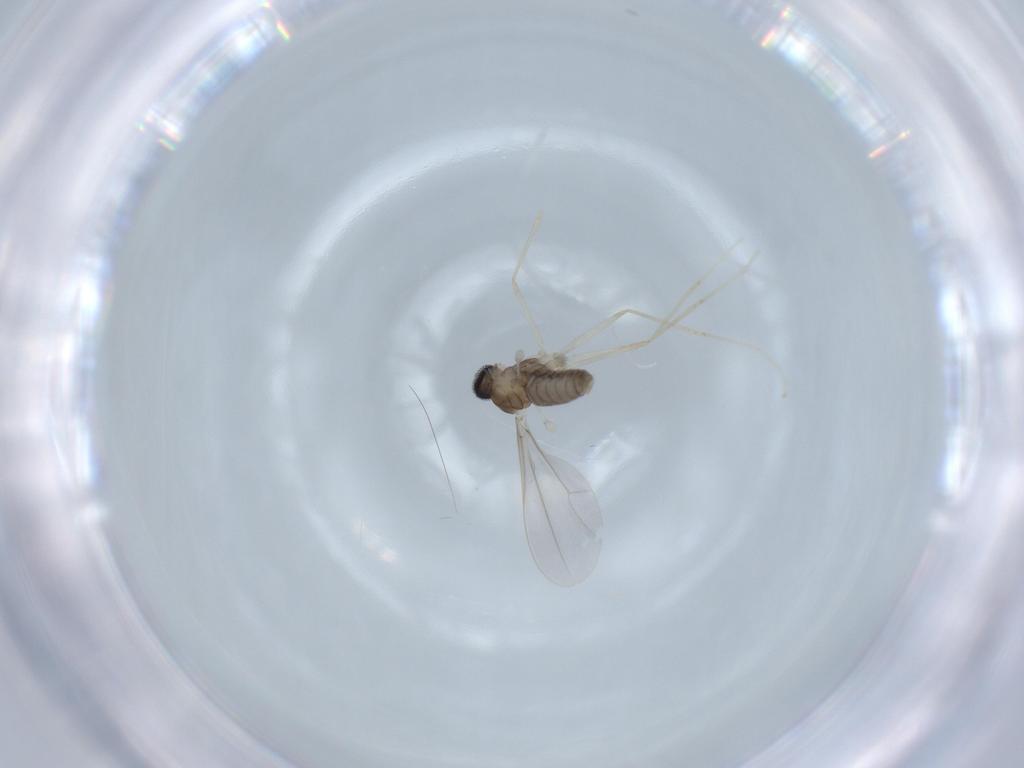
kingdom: Animalia
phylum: Arthropoda
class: Insecta
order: Diptera
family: Cecidomyiidae
